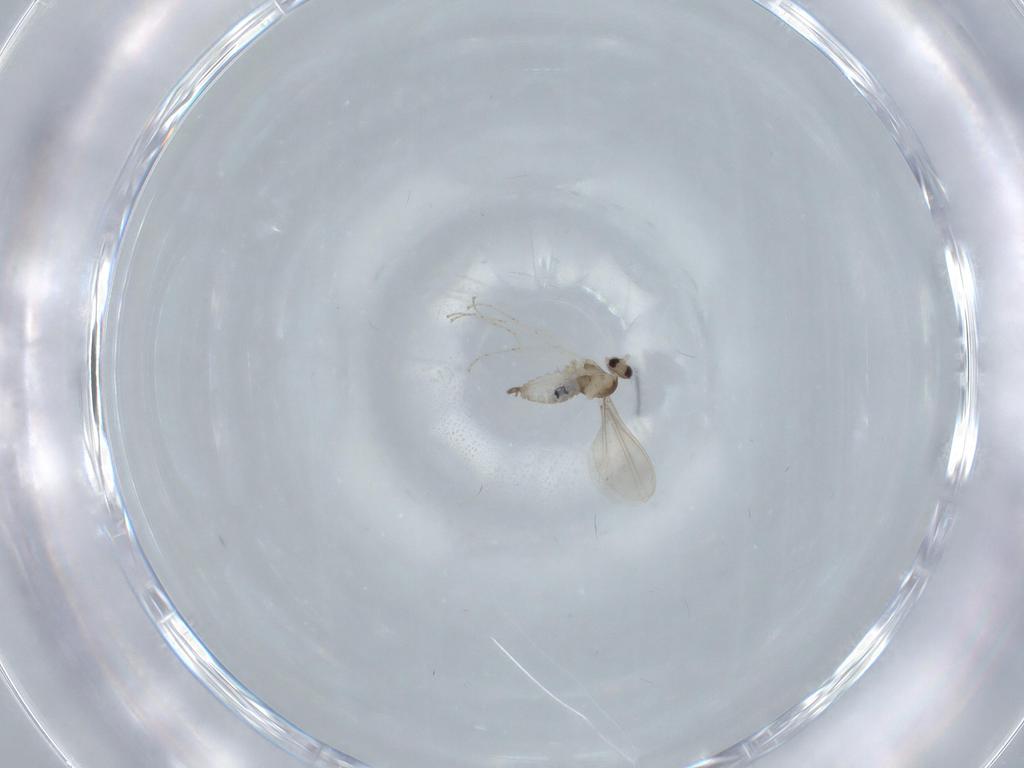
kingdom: Animalia
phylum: Arthropoda
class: Insecta
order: Diptera
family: Cecidomyiidae
